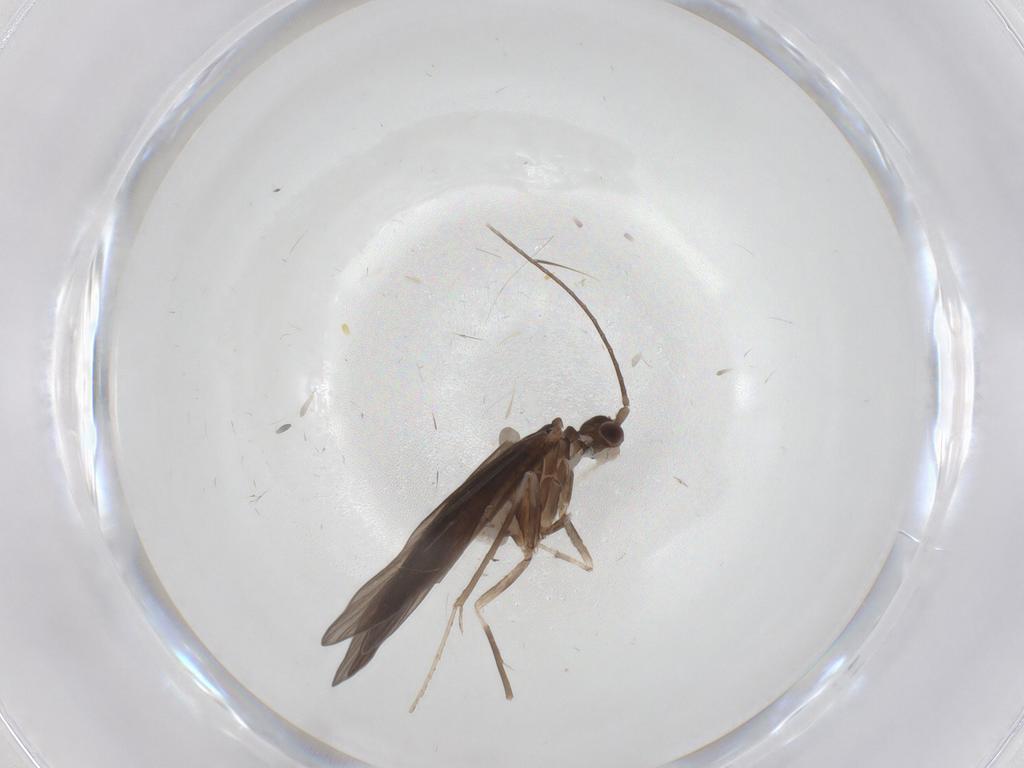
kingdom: Animalia
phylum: Arthropoda
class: Insecta
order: Trichoptera
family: Xiphocentronidae
